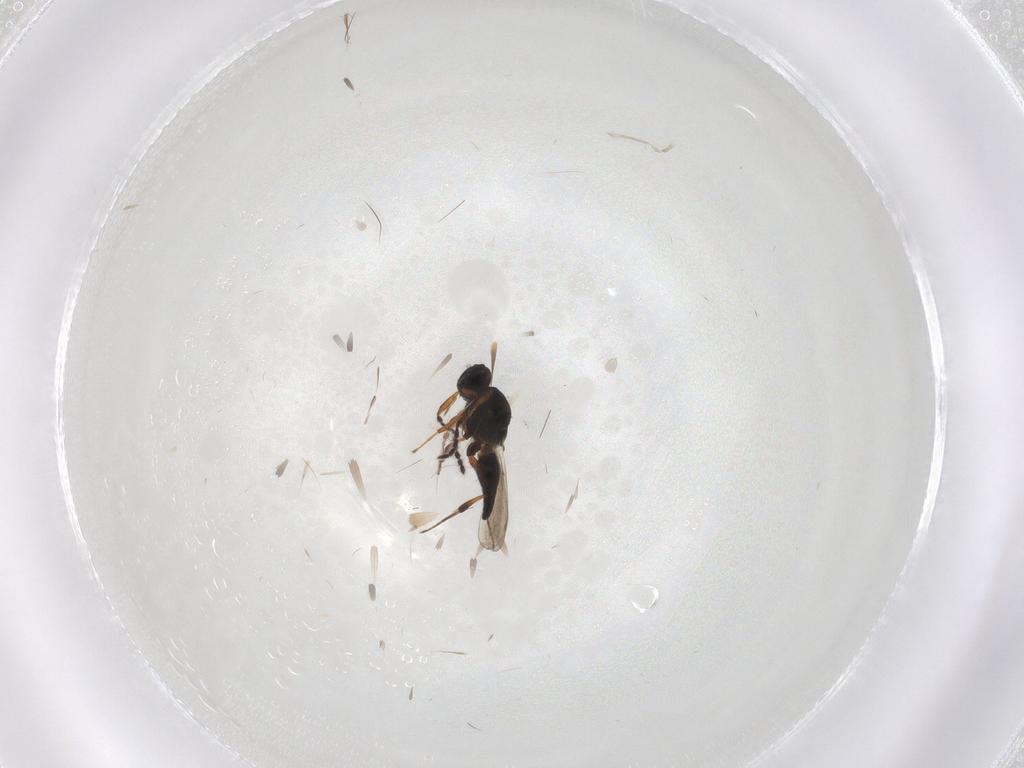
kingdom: Animalia
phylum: Arthropoda
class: Insecta
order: Hymenoptera
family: Platygastridae
